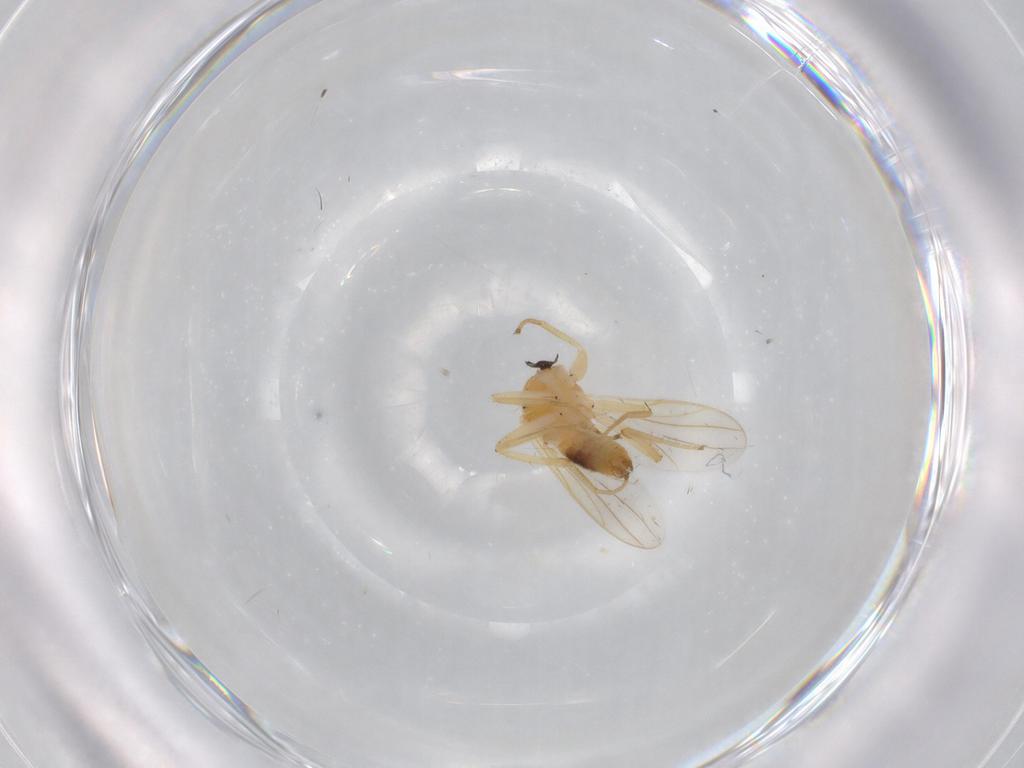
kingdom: Animalia
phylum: Arthropoda
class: Insecta
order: Diptera
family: Hybotidae
